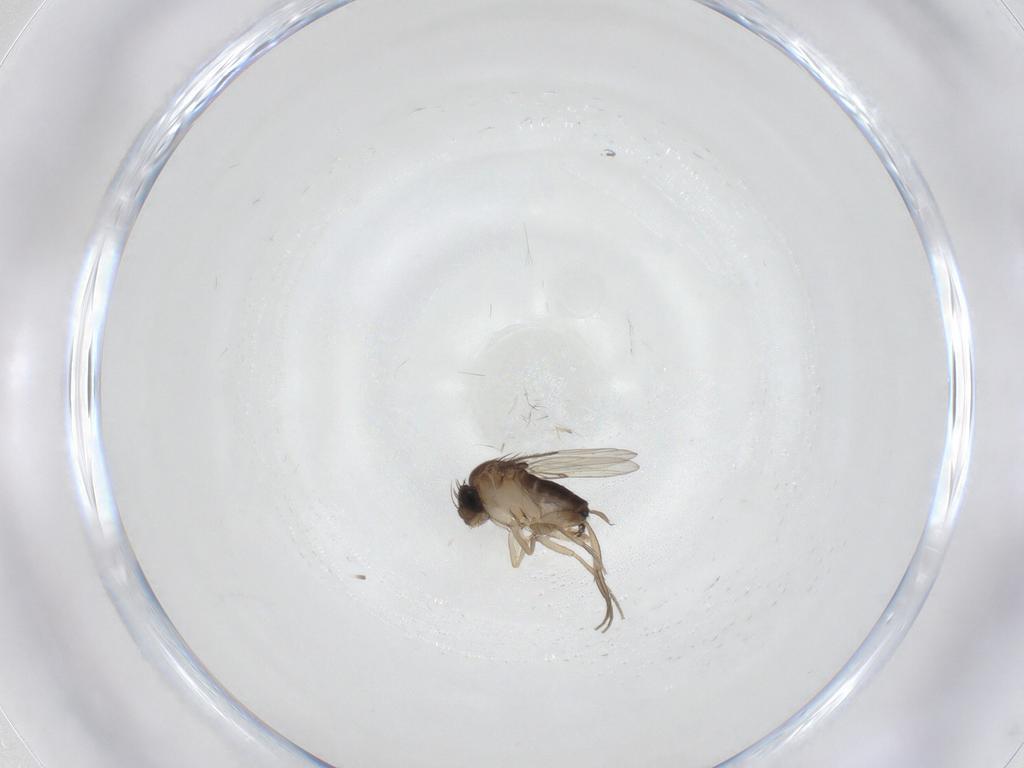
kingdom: Animalia
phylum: Arthropoda
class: Insecta
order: Diptera
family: Phoridae
